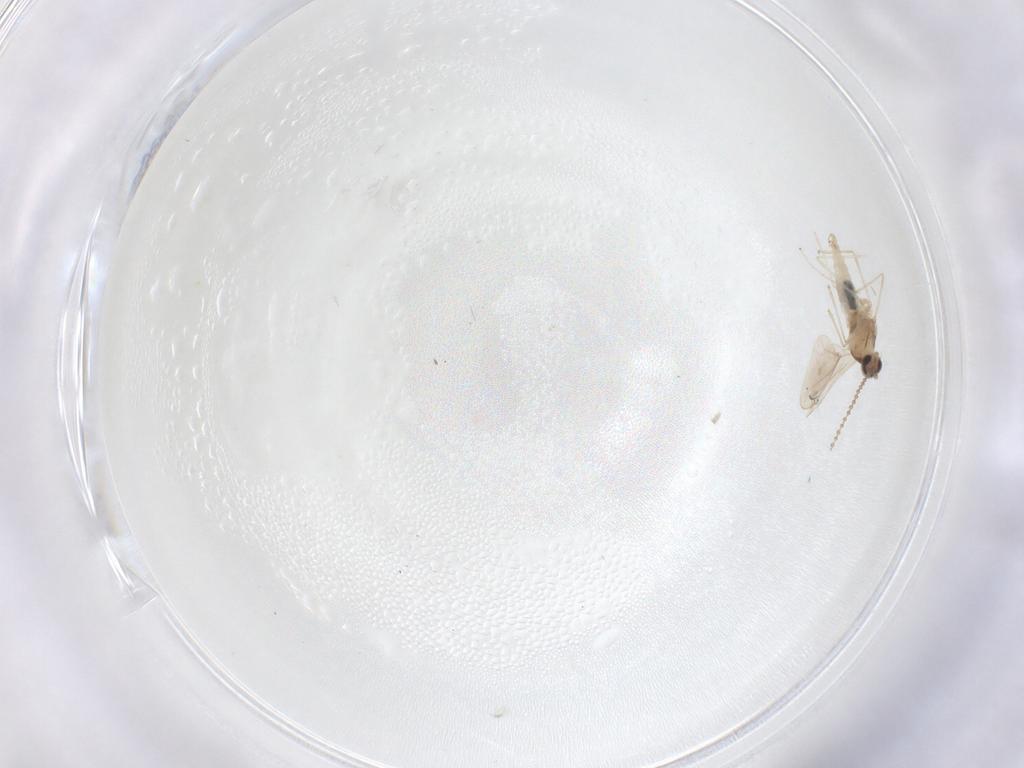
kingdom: Animalia
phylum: Arthropoda
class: Insecta
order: Diptera
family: Cecidomyiidae
